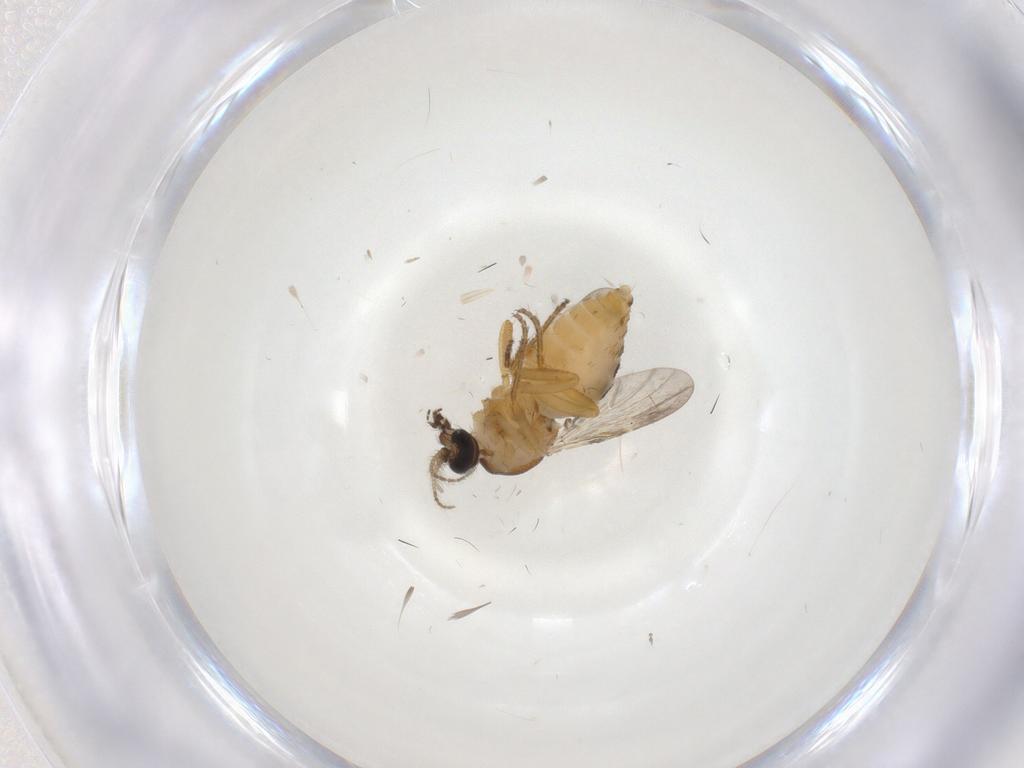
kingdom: Animalia
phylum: Arthropoda
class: Insecta
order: Diptera
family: Ceratopogonidae
